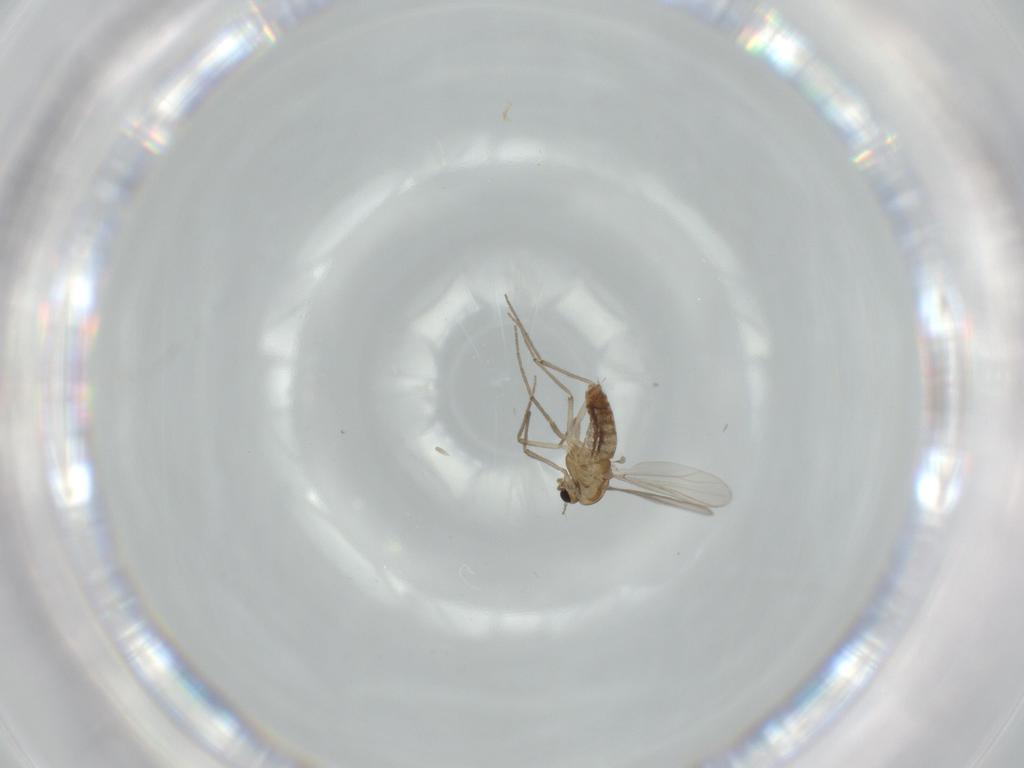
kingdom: Animalia
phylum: Arthropoda
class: Insecta
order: Diptera
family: Chironomidae
